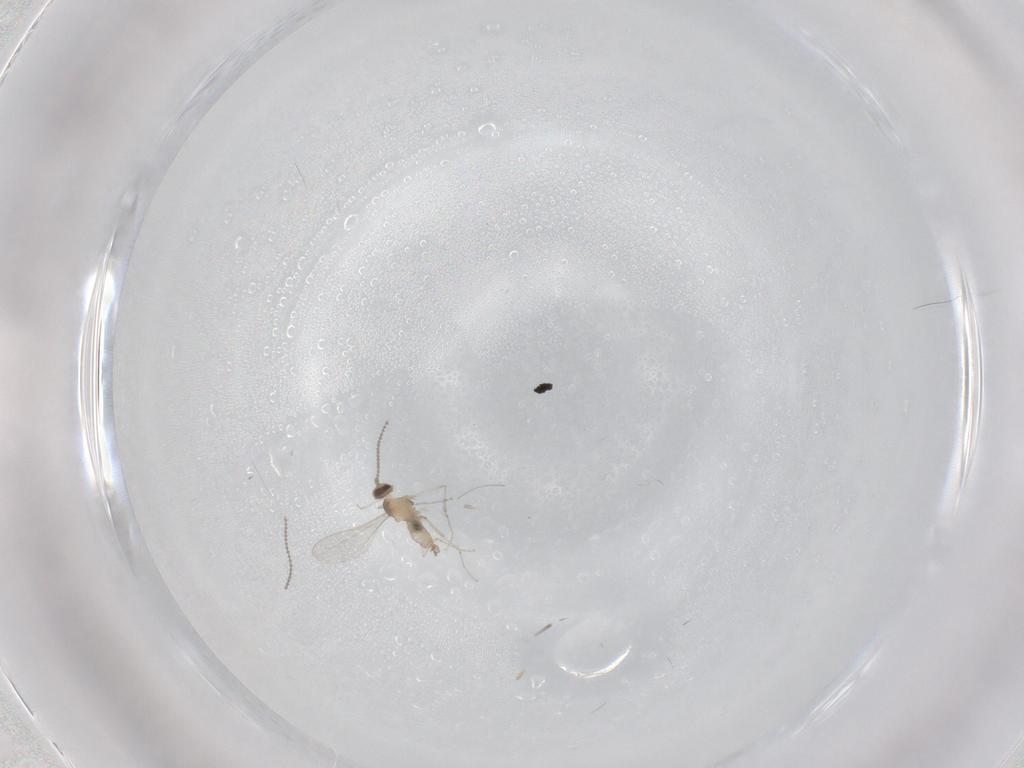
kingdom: Animalia
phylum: Arthropoda
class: Insecta
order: Diptera
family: Cecidomyiidae
